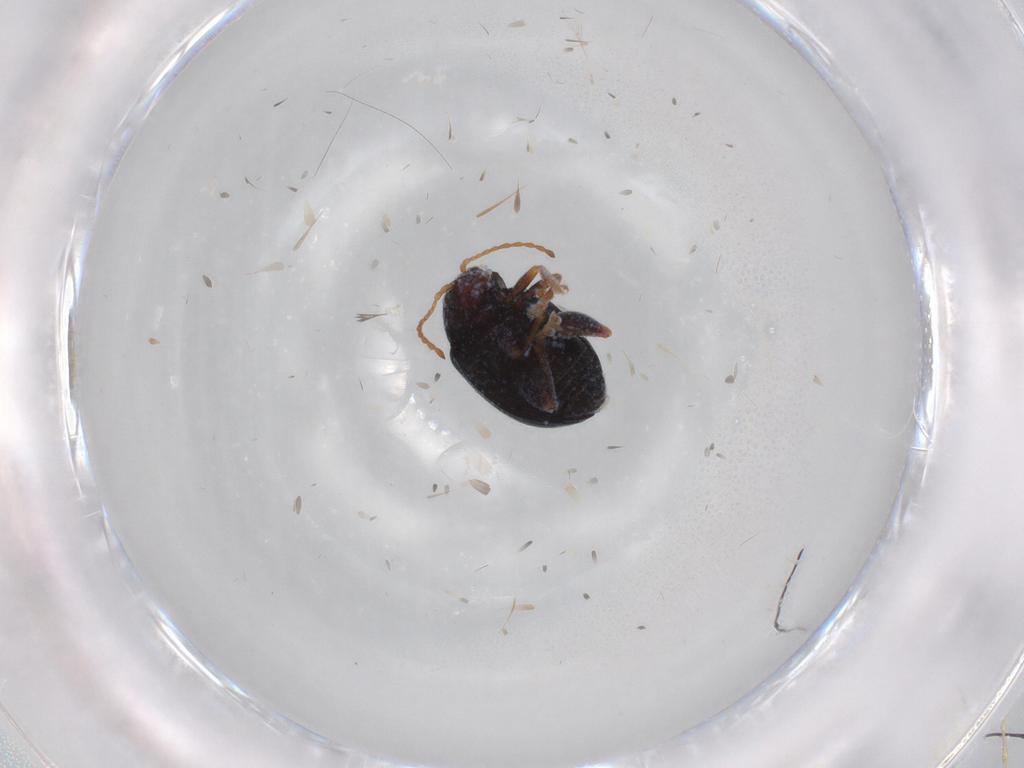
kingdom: Animalia
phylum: Arthropoda
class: Insecta
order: Coleoptera
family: Chrysomelidae
